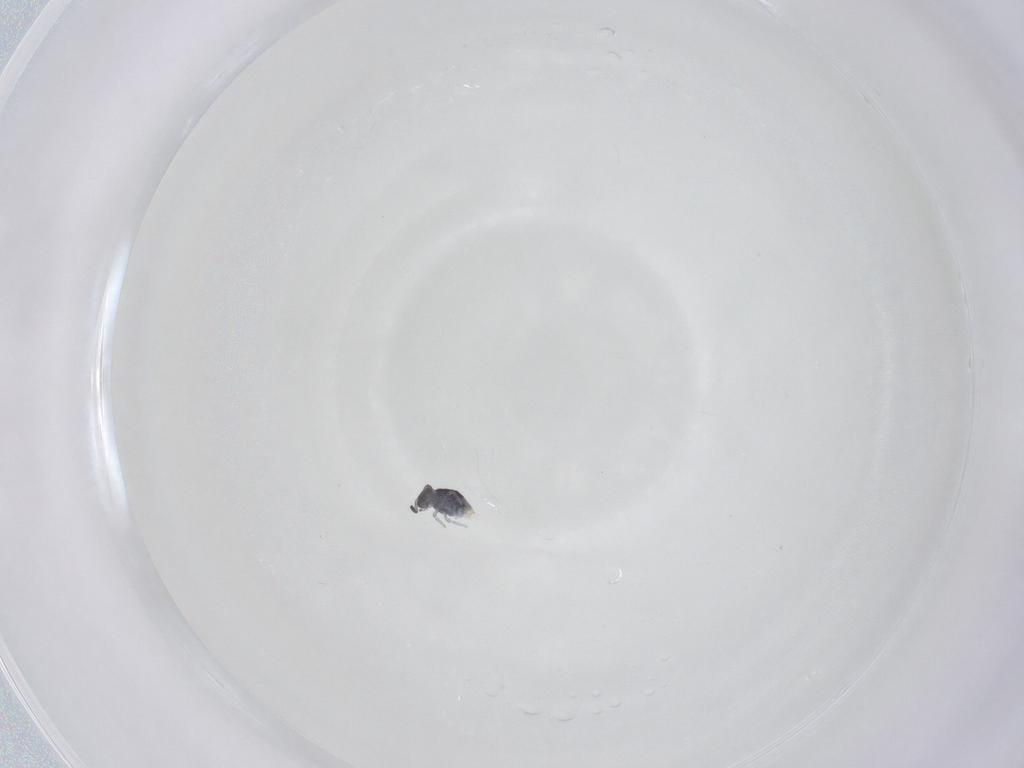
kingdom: Animalia
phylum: Arthropoda
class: Collembola
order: Symphypleona
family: Katiannidae
